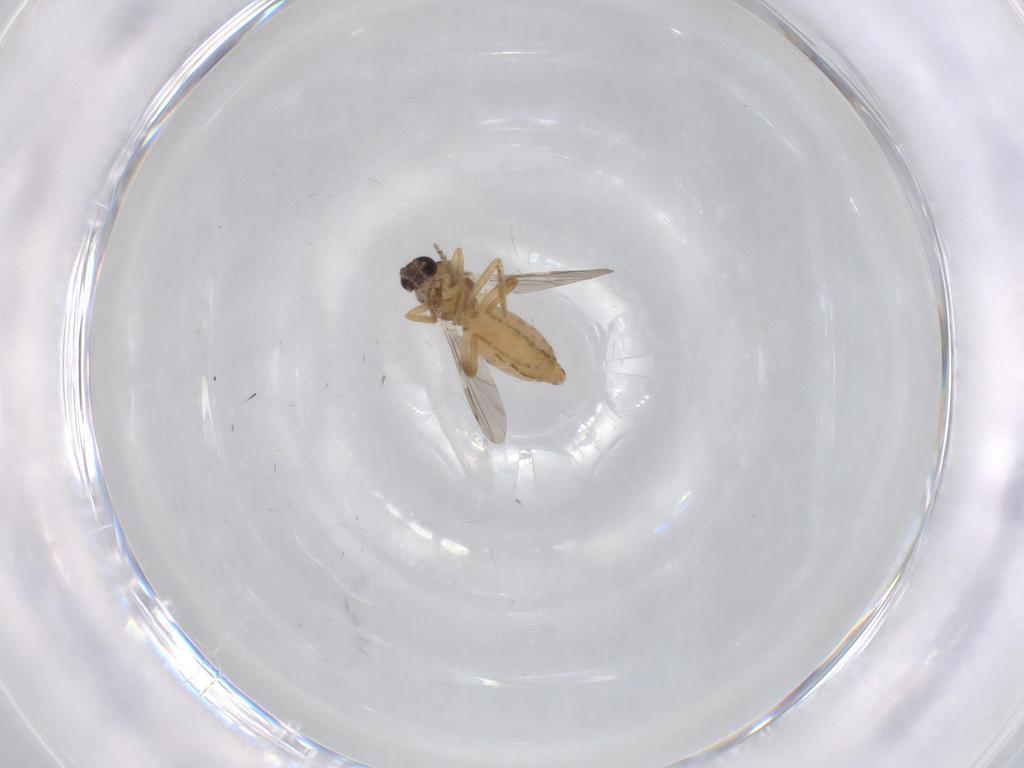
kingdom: Animalia
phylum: Arthropoda
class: Insecta
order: Diptera
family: Ceratopogonidae
